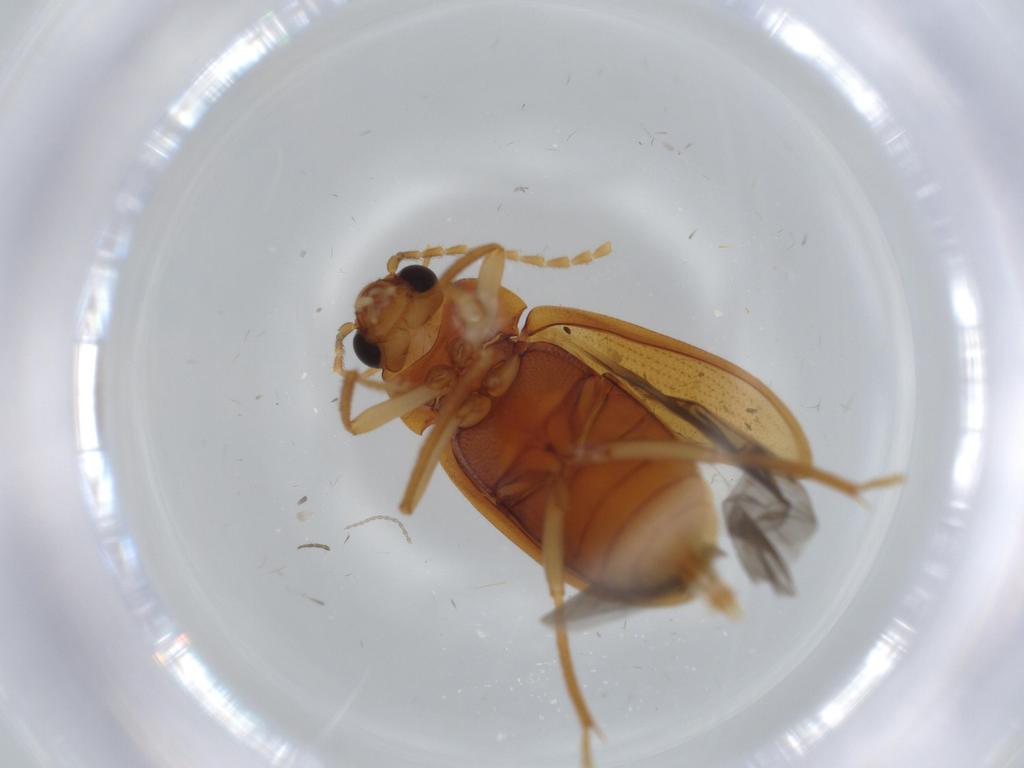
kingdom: Animalia
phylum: Arthropoda
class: Insecta
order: Coleoptera
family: Ptilodactylidae
